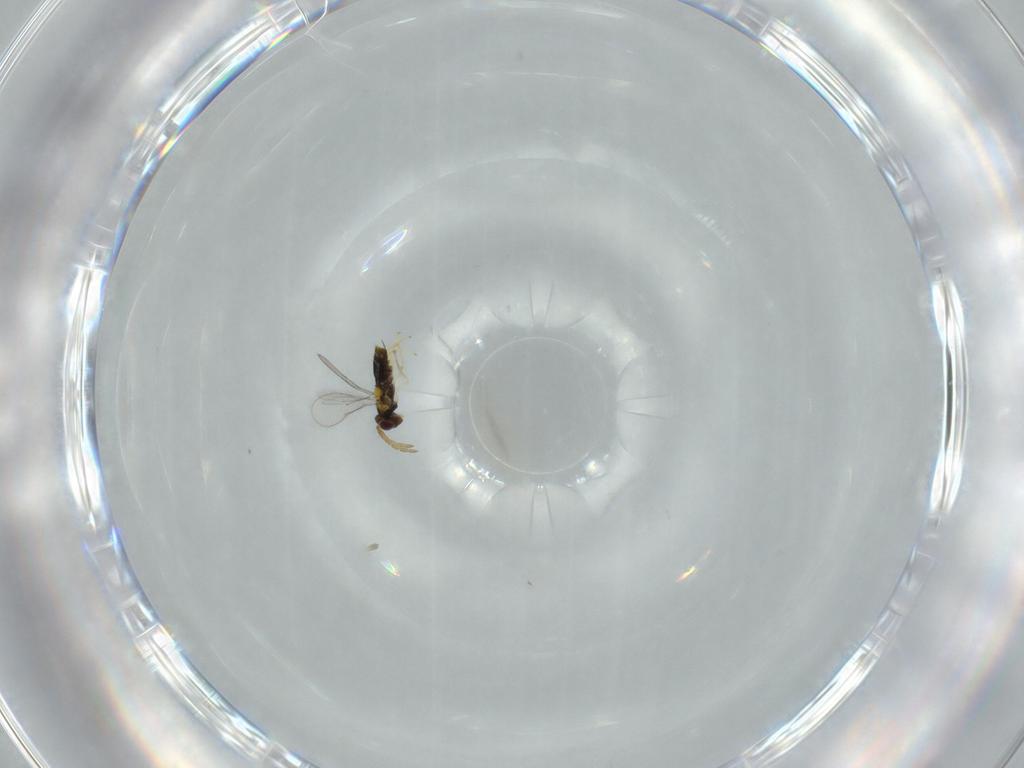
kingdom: Animalia
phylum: Arthropoda
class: Insecta
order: Hymenoptera
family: Aphelinidae
